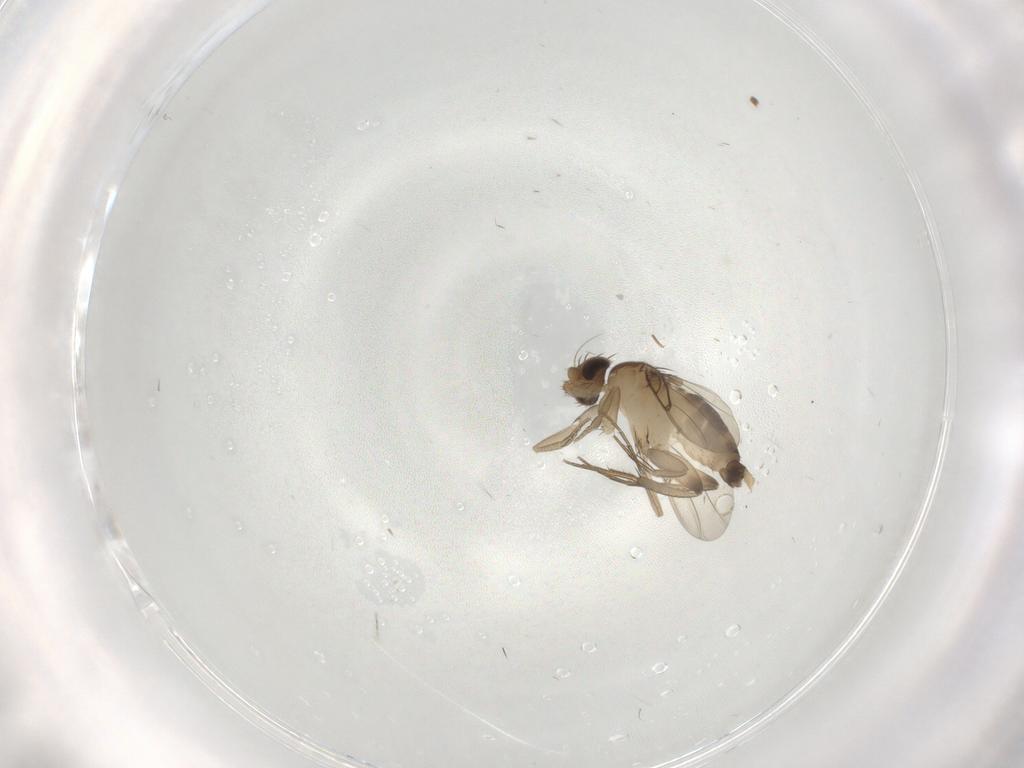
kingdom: Animalia
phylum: Arthropoda
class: Insecta
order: Diptera
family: Phoridae
